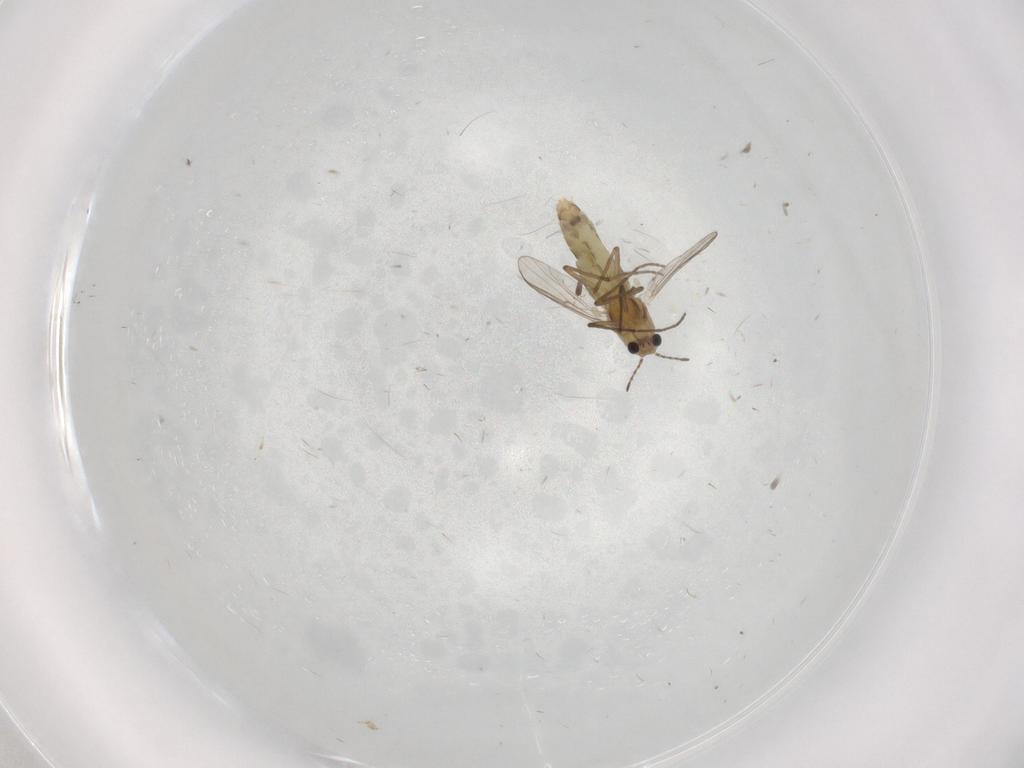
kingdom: Animalia
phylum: Arthropoda
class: Insecta
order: Diptera
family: Chironomidae
